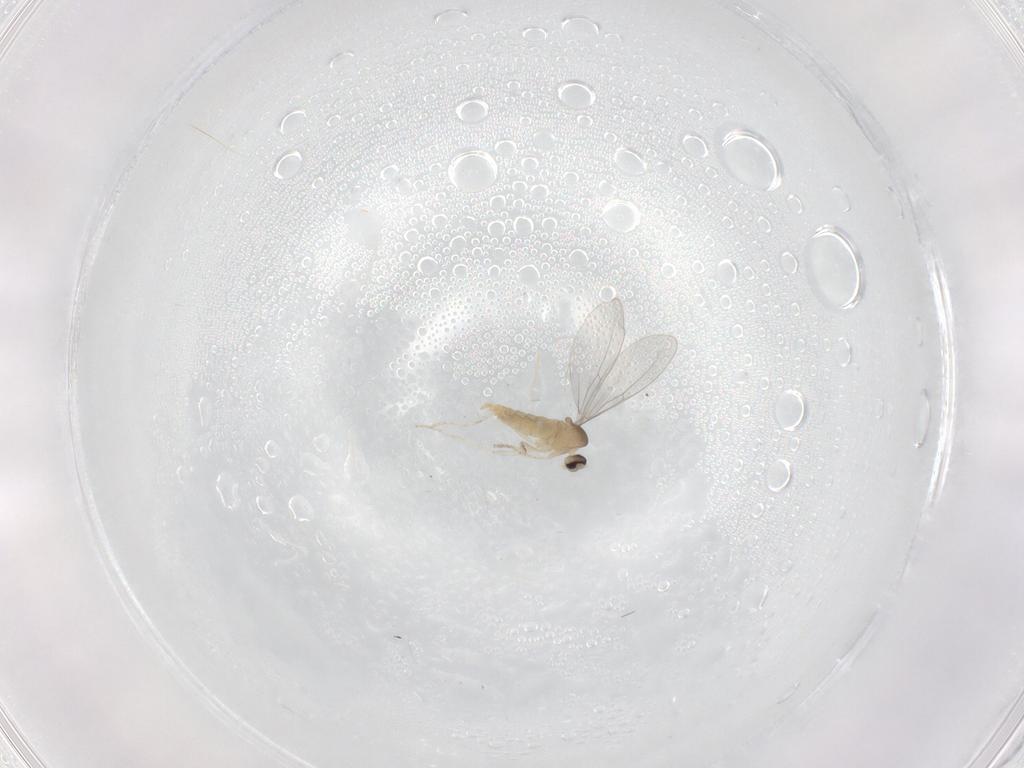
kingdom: Animalia
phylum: Arthropoda
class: Insecta
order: Diptera
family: Phoridae
